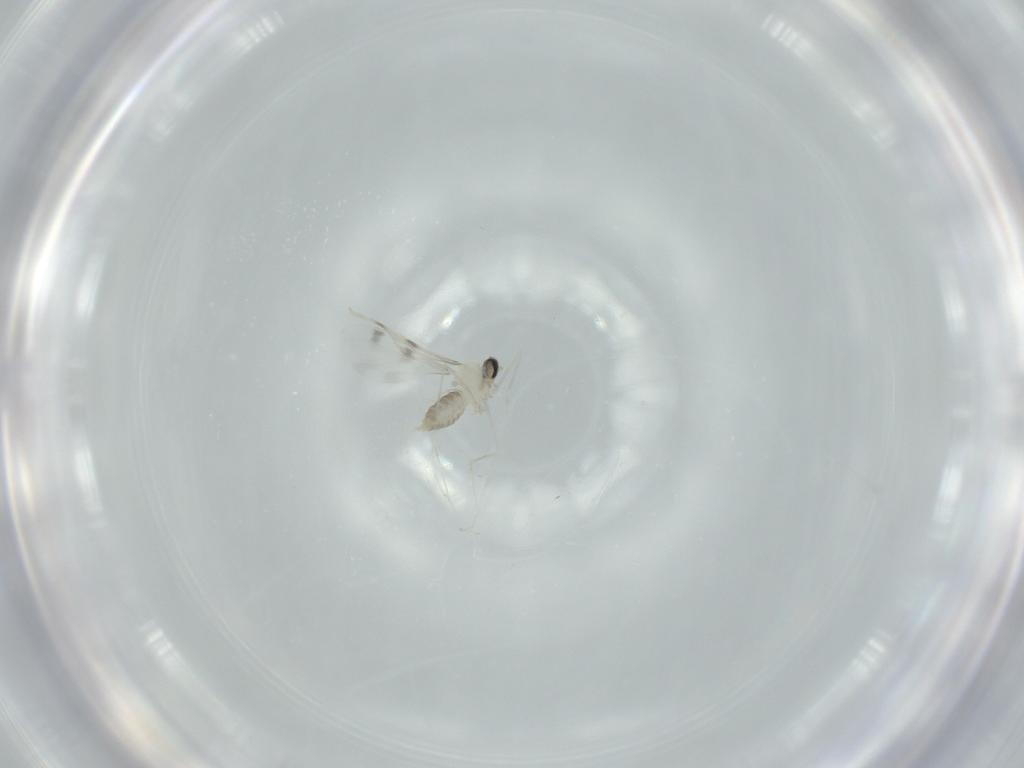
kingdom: Animalia
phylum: Arthropoda
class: Insecta
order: Diptera
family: Cecidomyiidae
